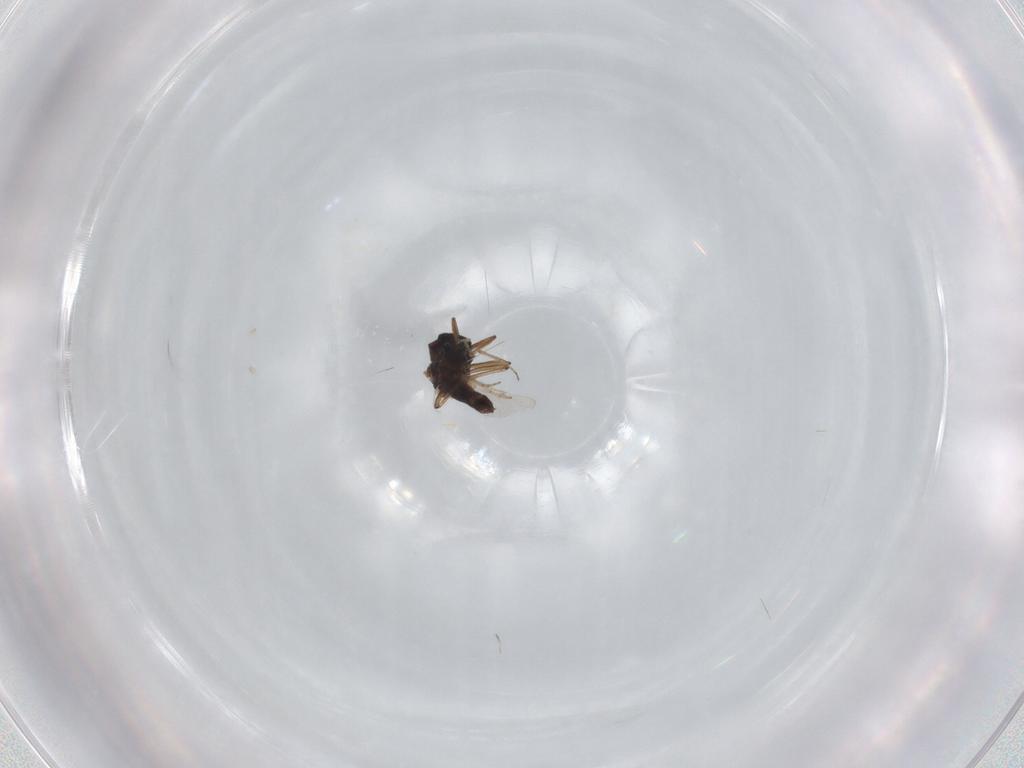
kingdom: Animalia
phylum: Arthropoda
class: Insecta
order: Diptera
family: Ceratopogonidae
